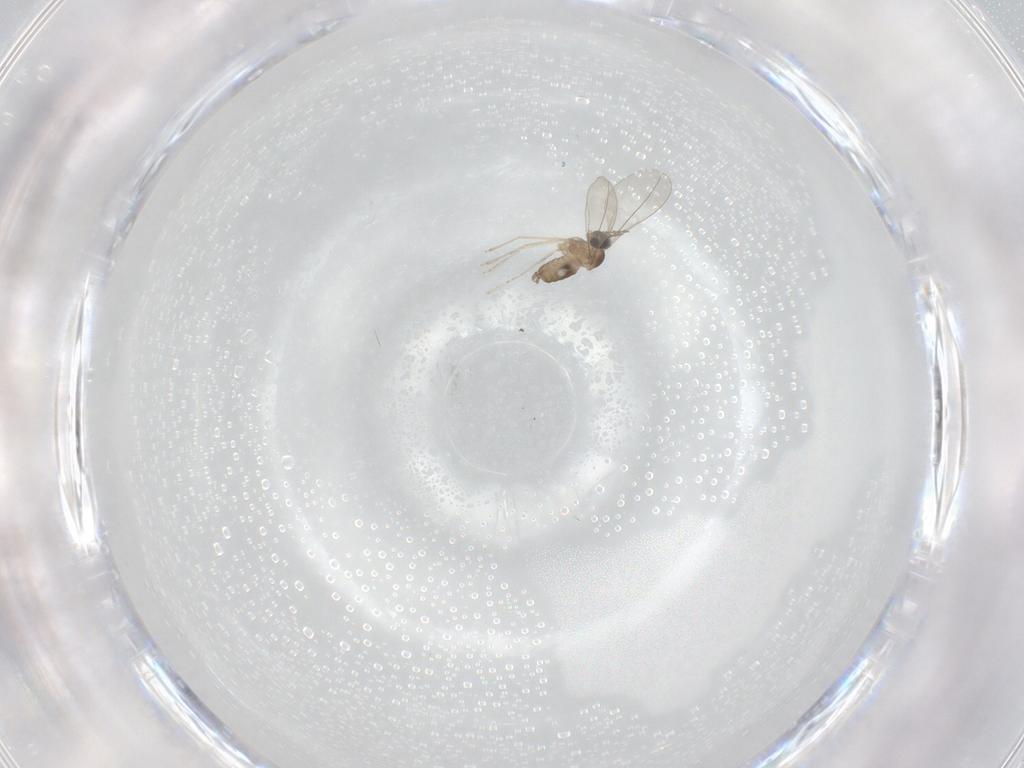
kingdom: Animalia
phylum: Arthropoda
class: Insecta
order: Diptera
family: Cecidomyiidae
